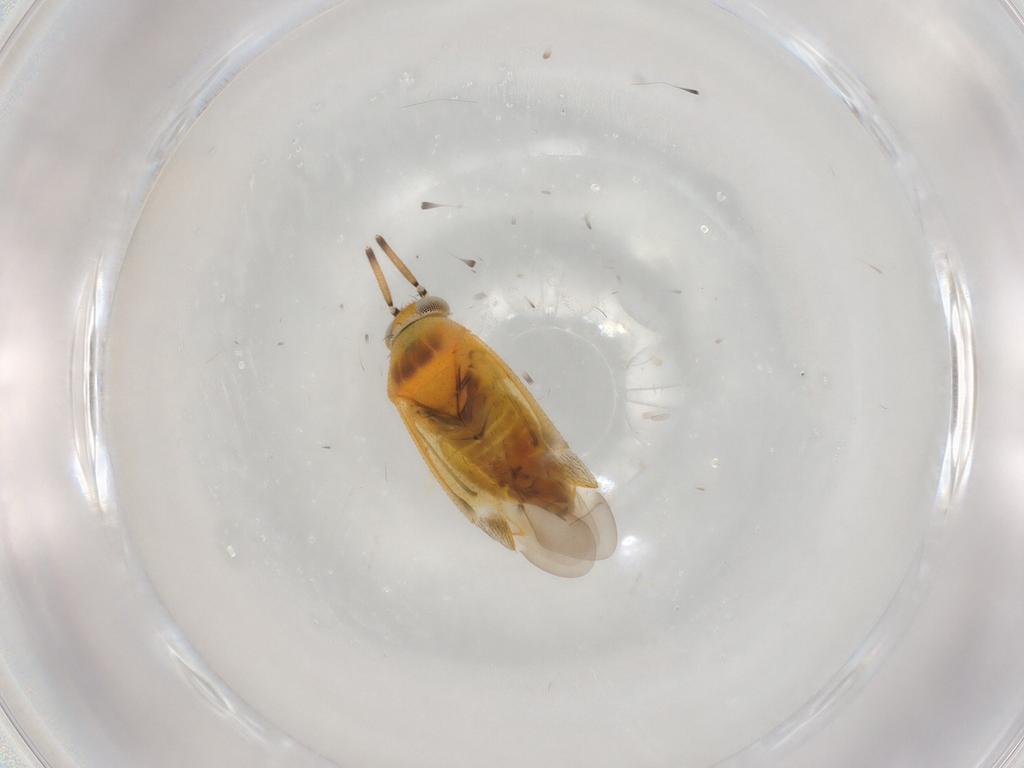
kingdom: Animalia
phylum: Arthropoda
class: Insecta
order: Hemiptera
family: Miridae
